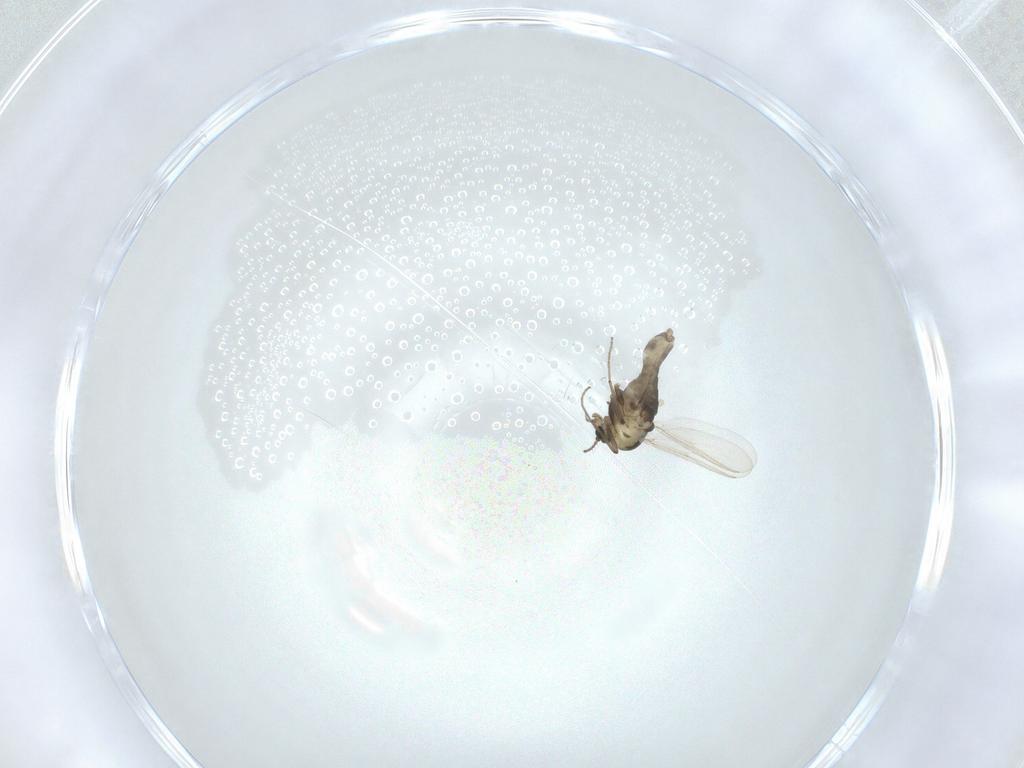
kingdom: Animalia
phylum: Arthropoda
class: Insecta
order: Diptera
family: Chironomidae
